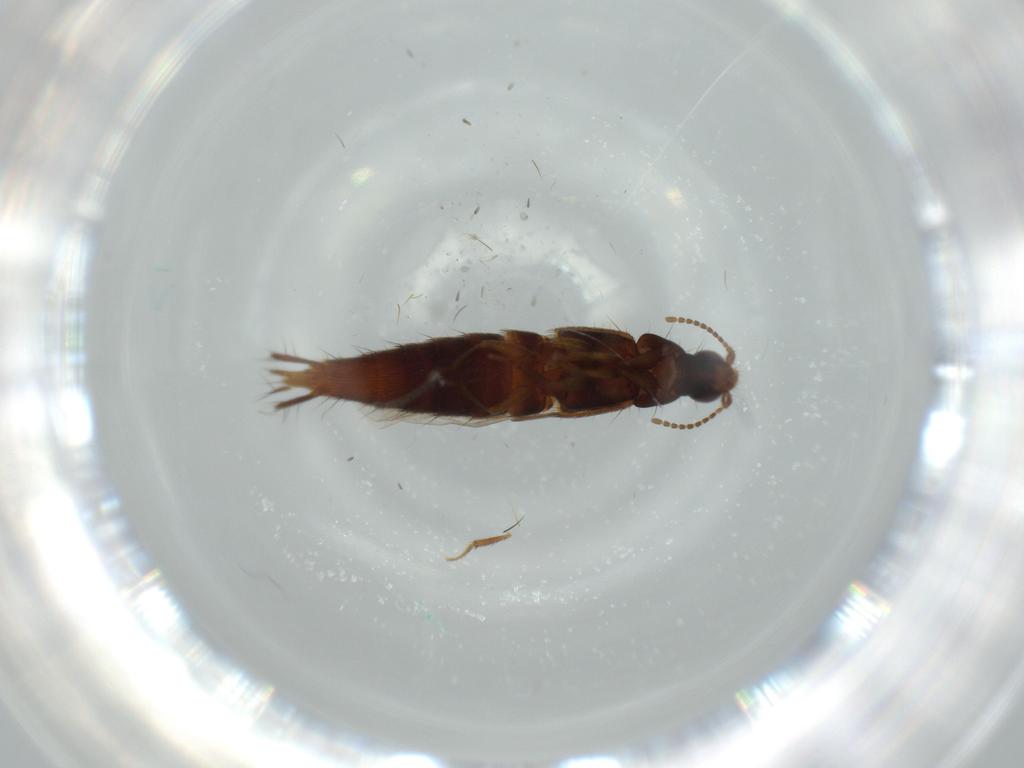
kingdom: Animalia
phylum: Arthropoda
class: Insecta
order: Coleoptera
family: Staphylinidae
